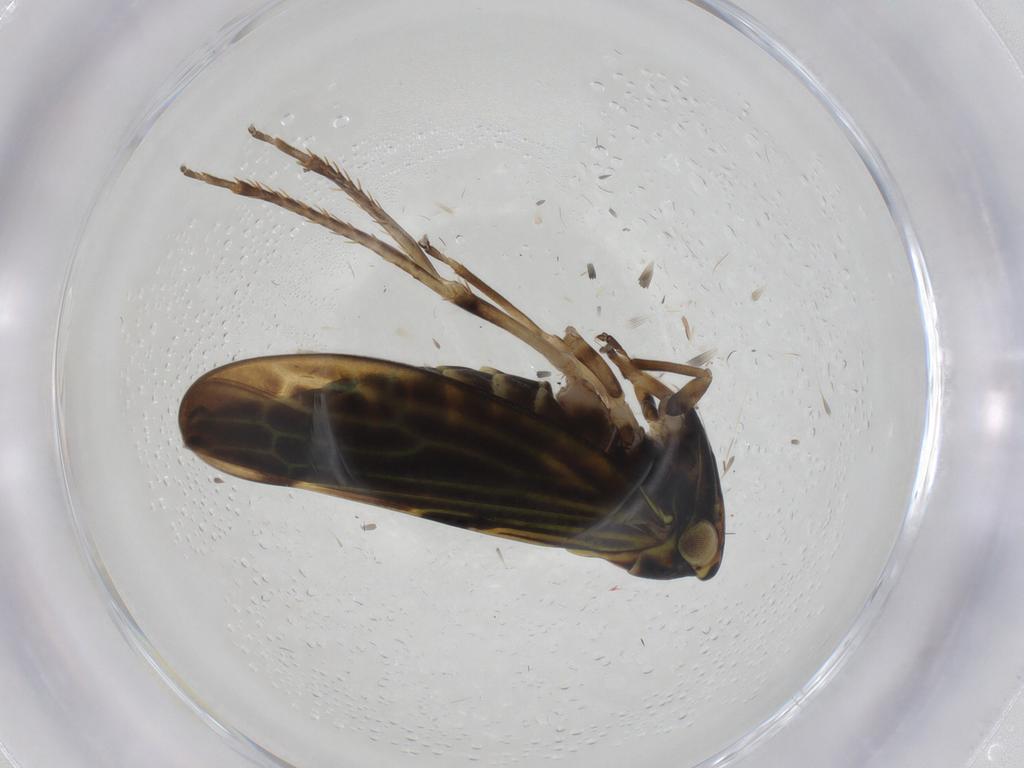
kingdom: Animalia
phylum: Arthropoda
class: Insecta
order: Hemiptera
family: Cicadellidae
